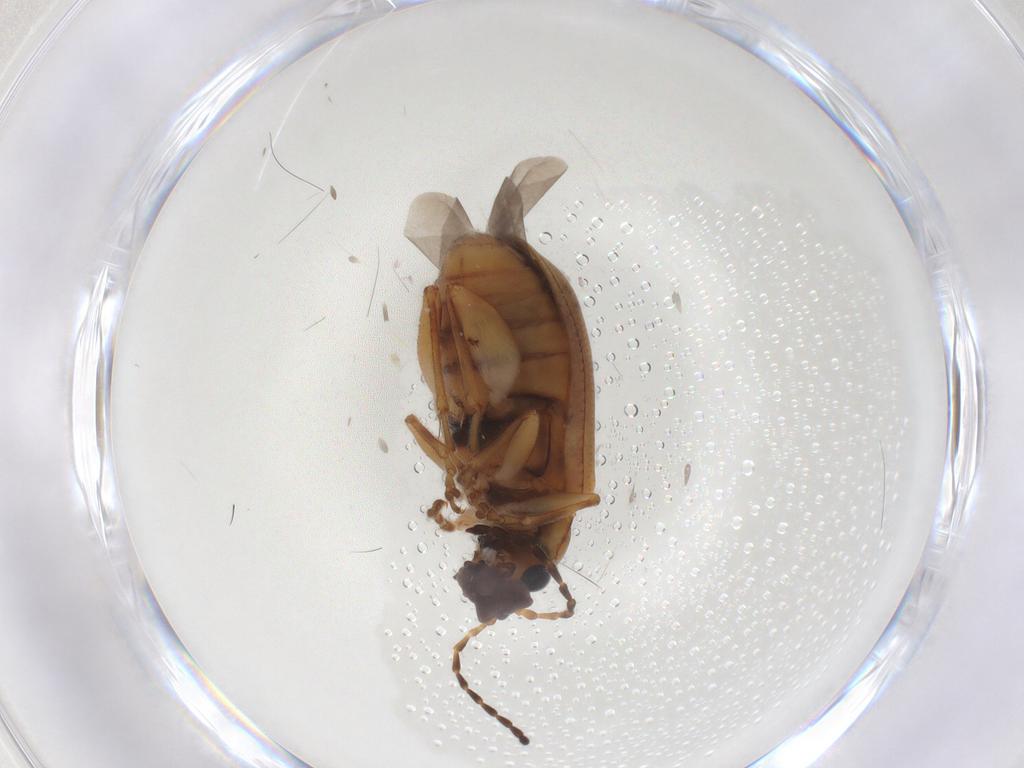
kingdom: Animalia
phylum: Arthropoda
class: Insecta
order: Coleoptera
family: Chrysomelidae
